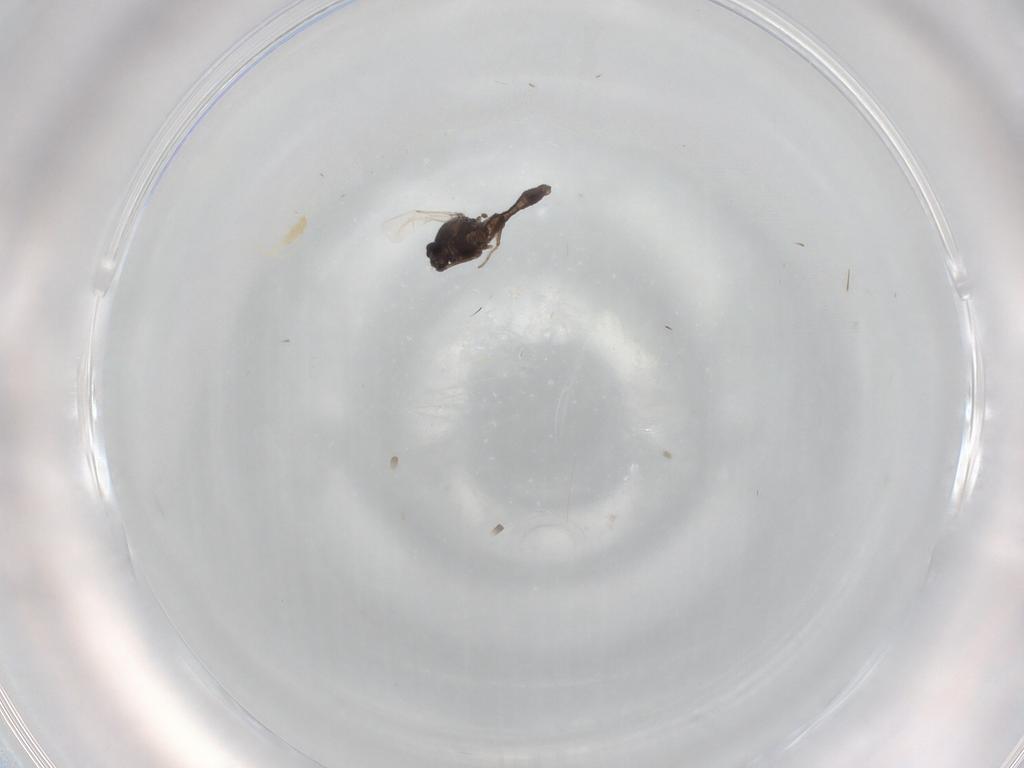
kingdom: Animalia
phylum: Arthropoda
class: Insecta
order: Diptera
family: Ceratopogonidae
